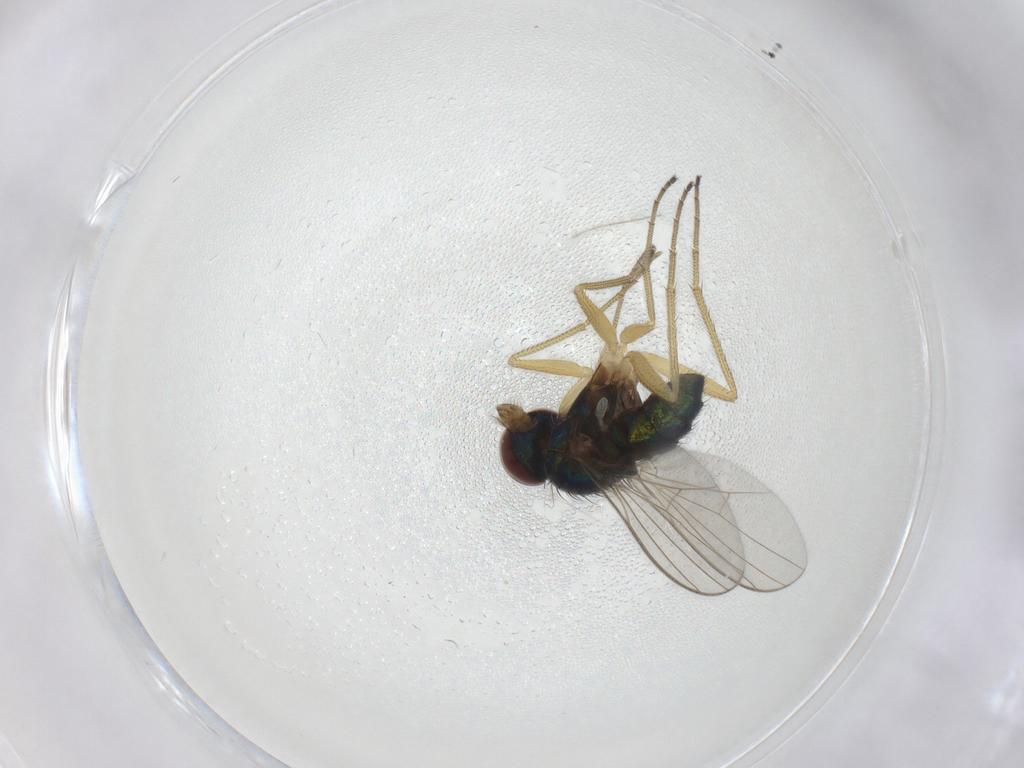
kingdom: Animalia
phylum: Arthropoda
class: Insecta
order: Diptera
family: Dolichopodidae
